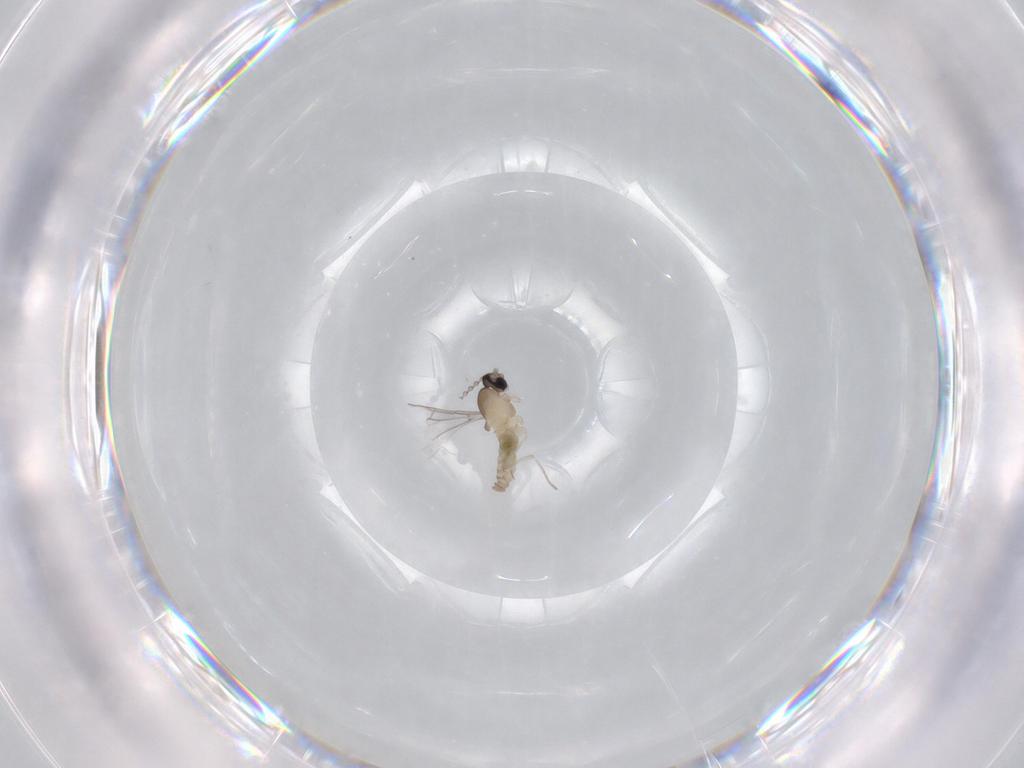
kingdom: Animalia
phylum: Arthropoda
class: Insecta
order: Diptera
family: Cecidomyiidae
